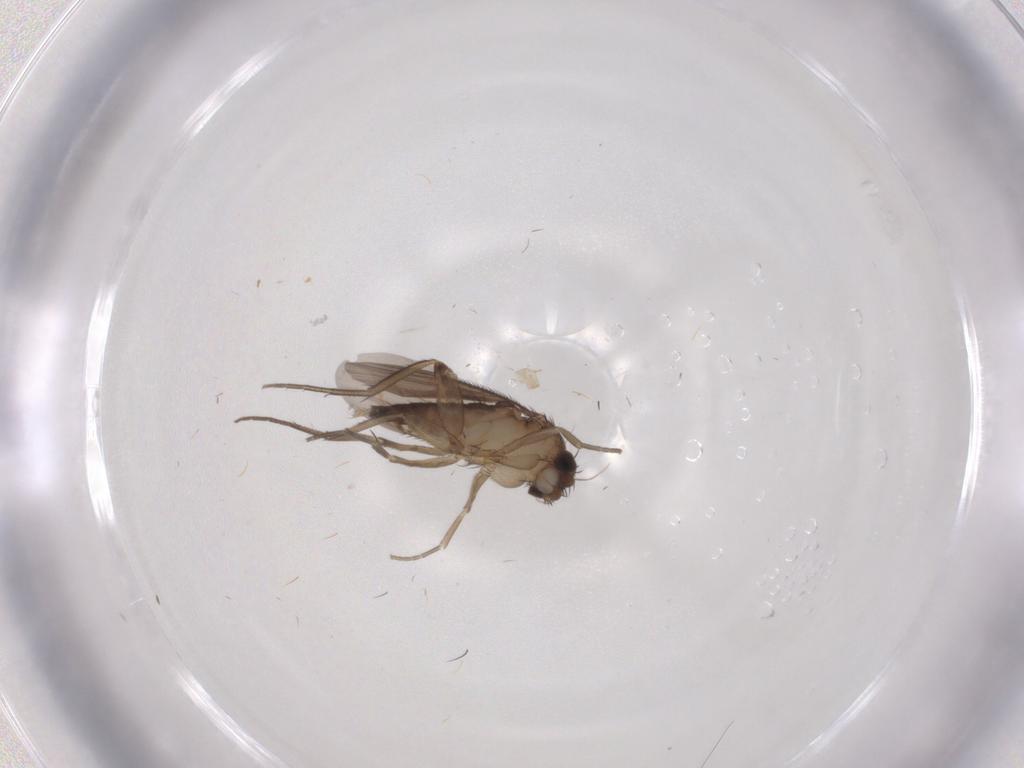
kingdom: Animalia
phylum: Arthropoda
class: Insecta
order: Diptera
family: Phoridae
